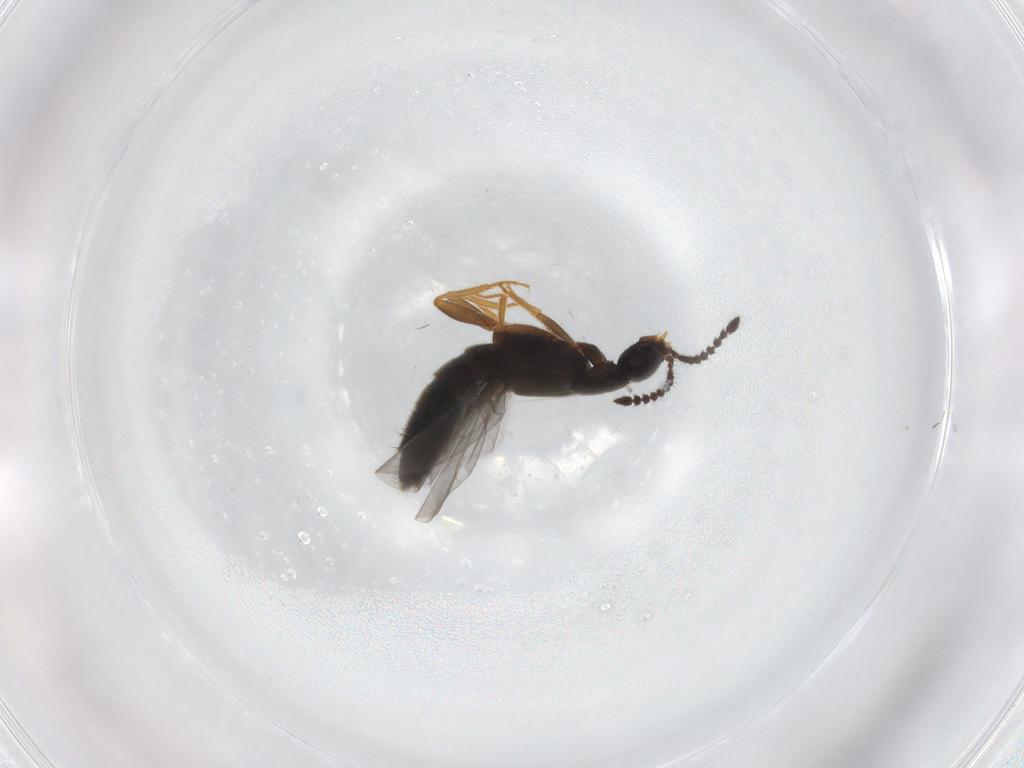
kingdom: Animalia
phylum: Arthropoda
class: Insecta
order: Coleoptera
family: Staphylinidae
